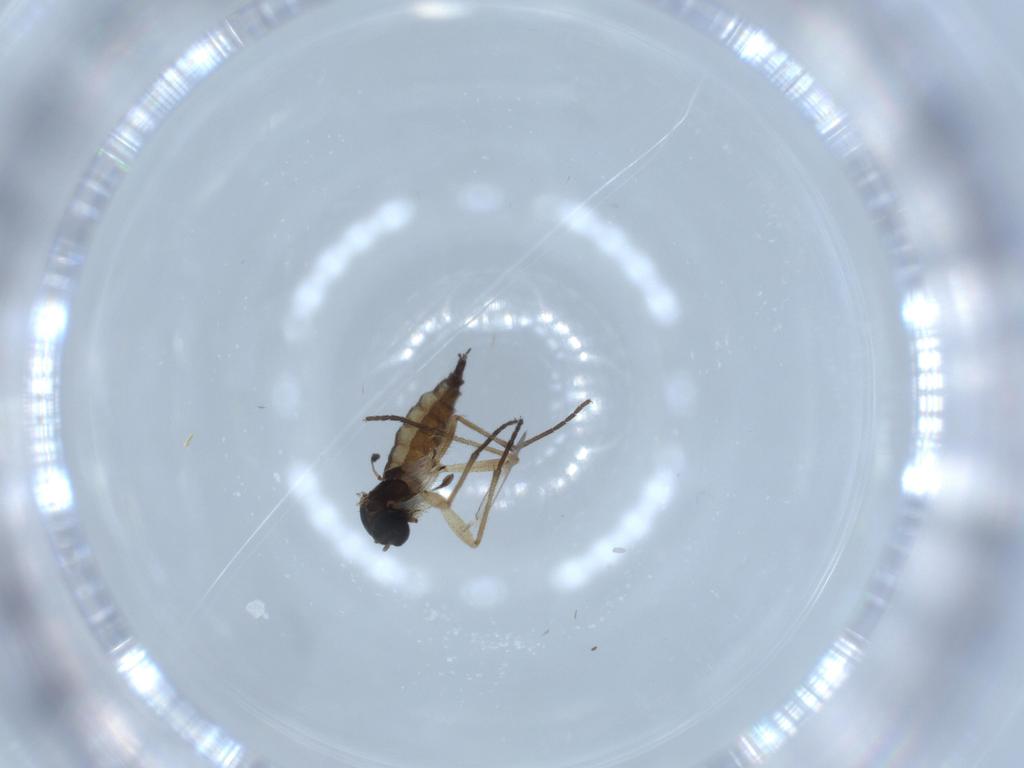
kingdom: Animalia
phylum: Arthropoda
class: Insecta
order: Diptera
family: Sciaridae
